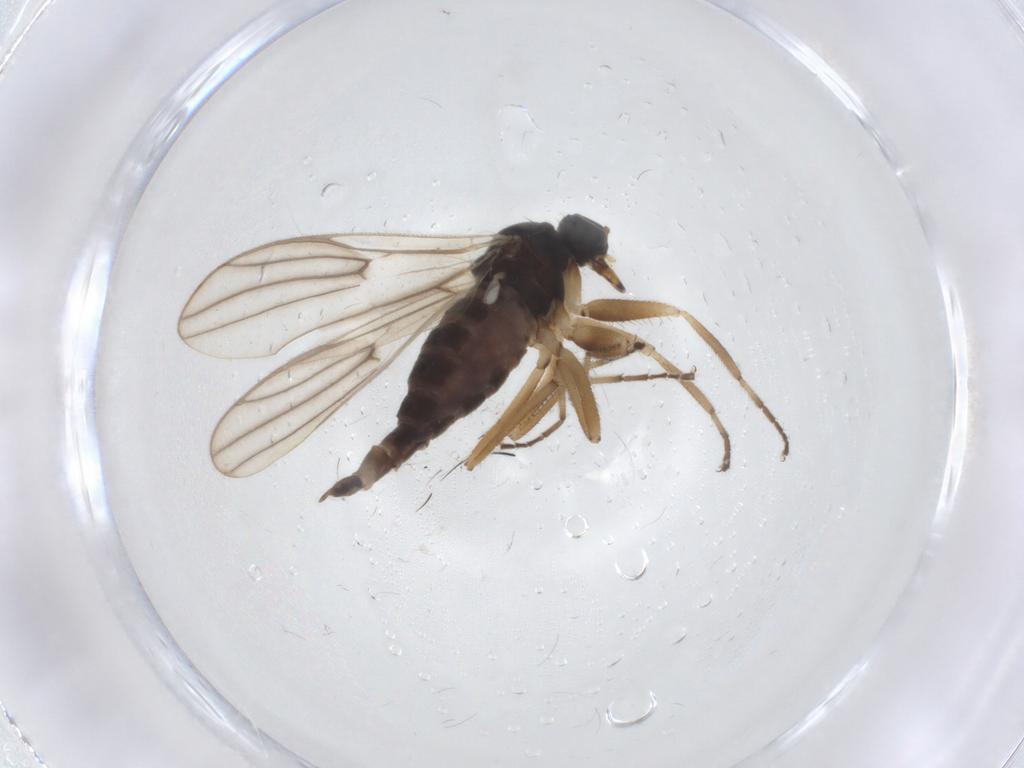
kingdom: Animalia
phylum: Arthropoda
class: Insecta
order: Diptera
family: Hybotidae
